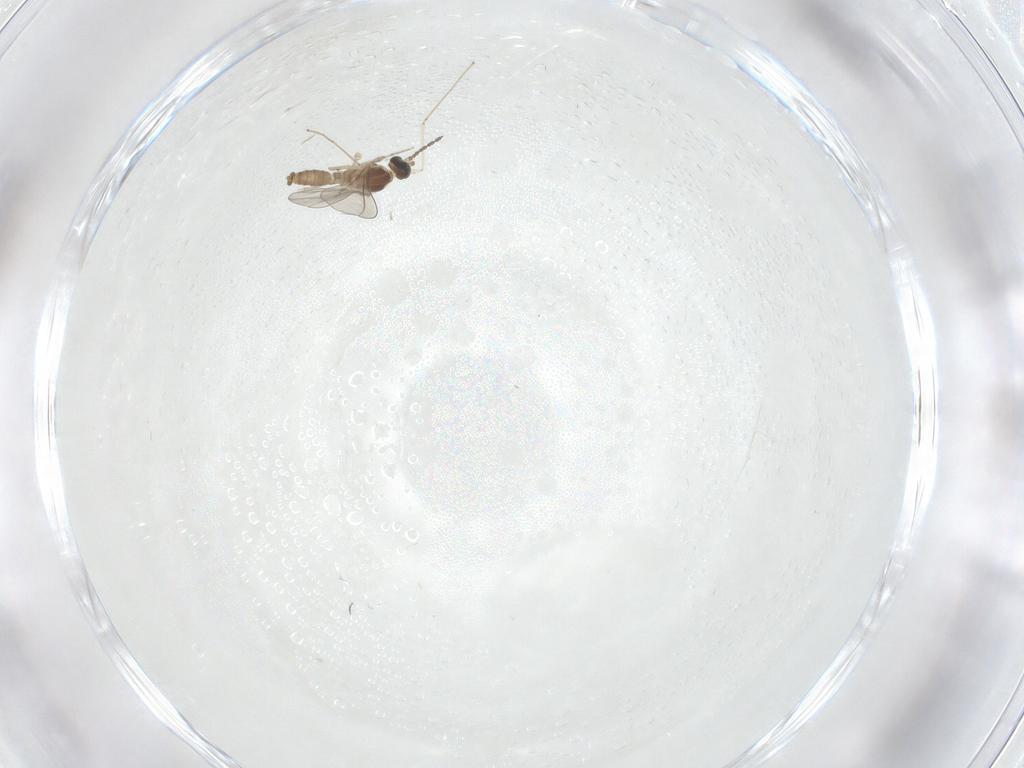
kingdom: Animalia
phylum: Arthropoda
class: Insecta
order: Diptera
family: Cecidomyiidae
